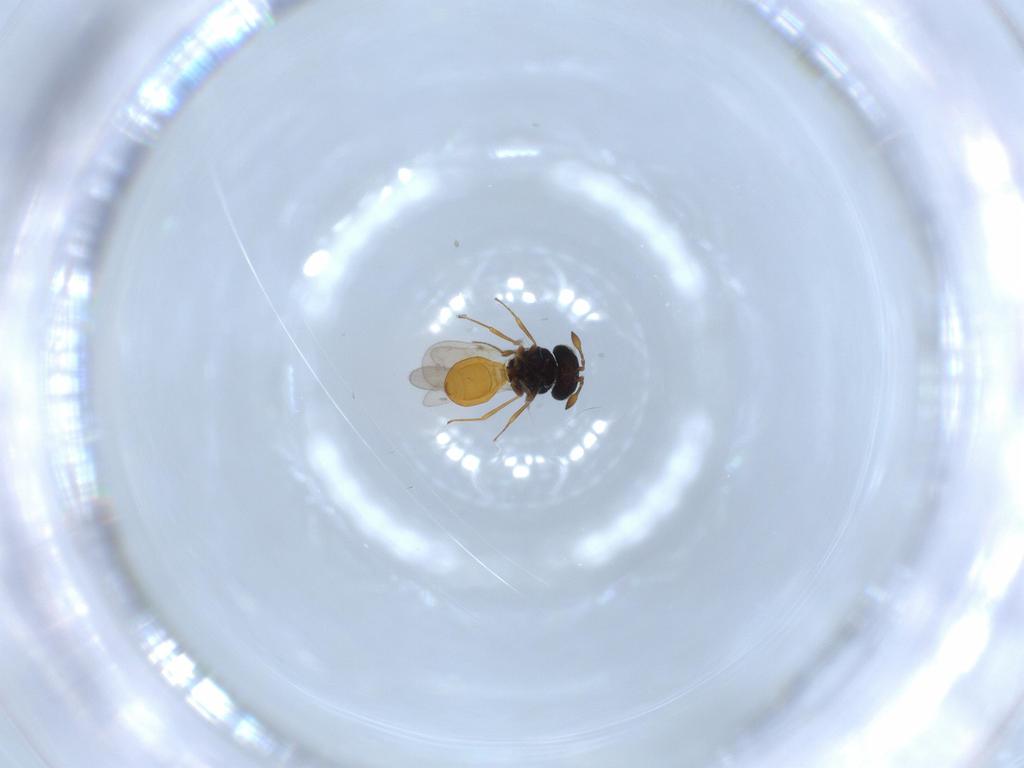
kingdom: Animalia
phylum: Arthropoda
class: Insecta
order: Hymenoptera
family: Scelionidae
